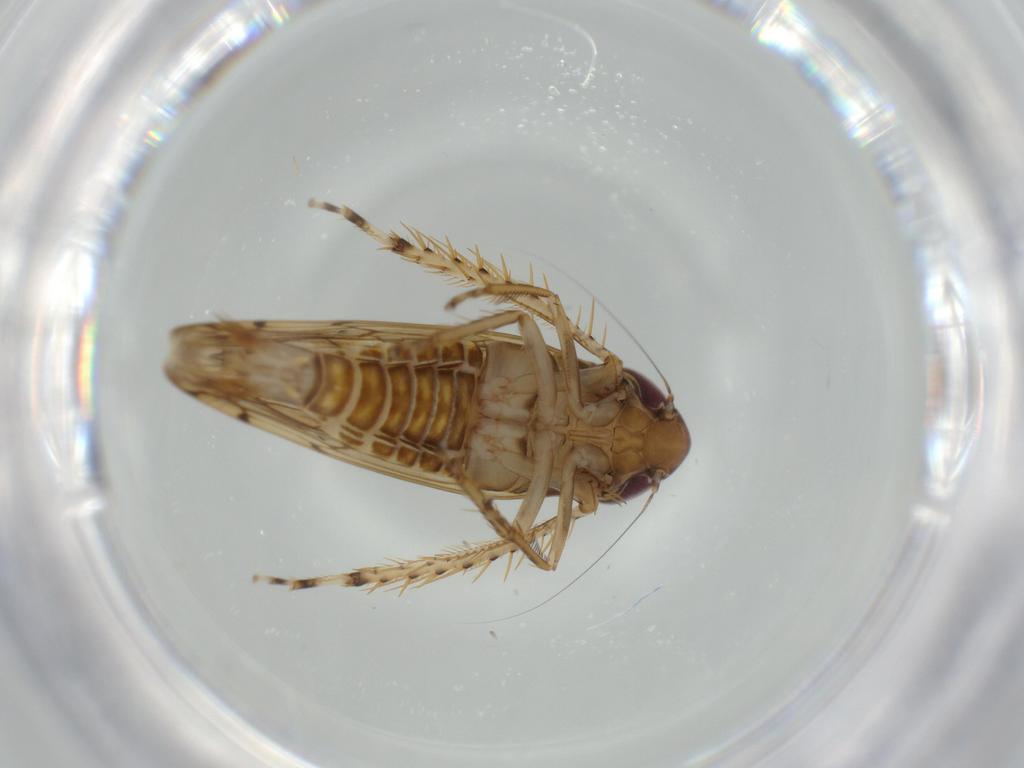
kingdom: Animalia
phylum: Arthropoda
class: Insecta
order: Hemiptera
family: Cicadellidae
